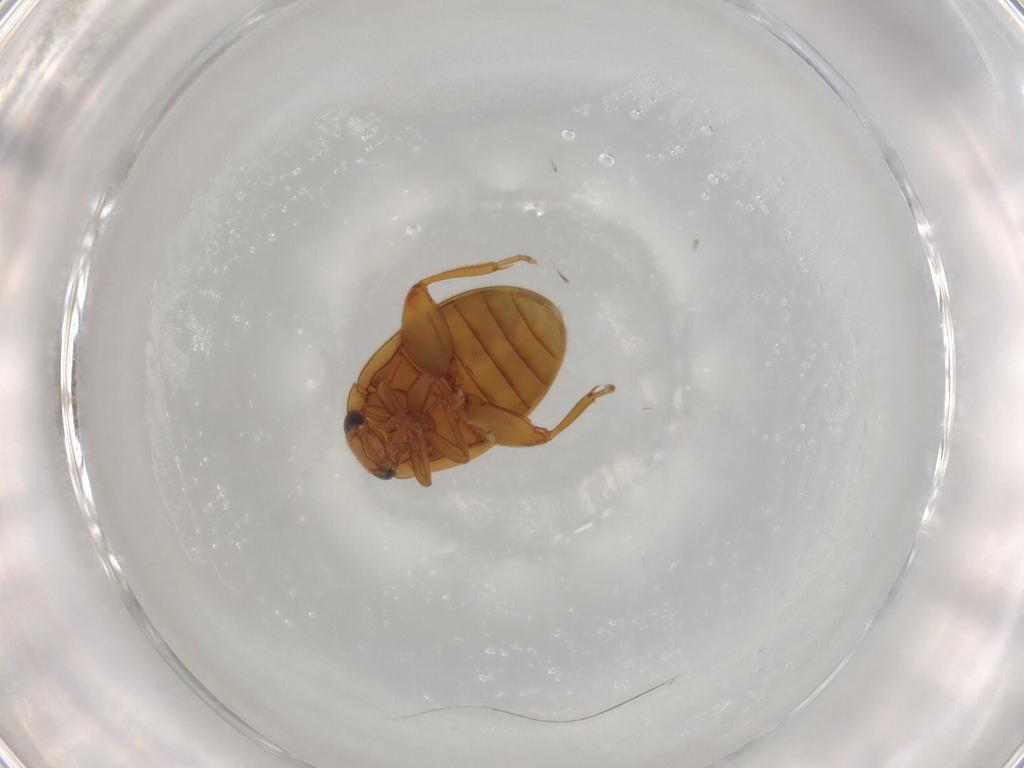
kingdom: Animalia
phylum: Arthropoda
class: Insecta
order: Coleoptera
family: Scirtidae
